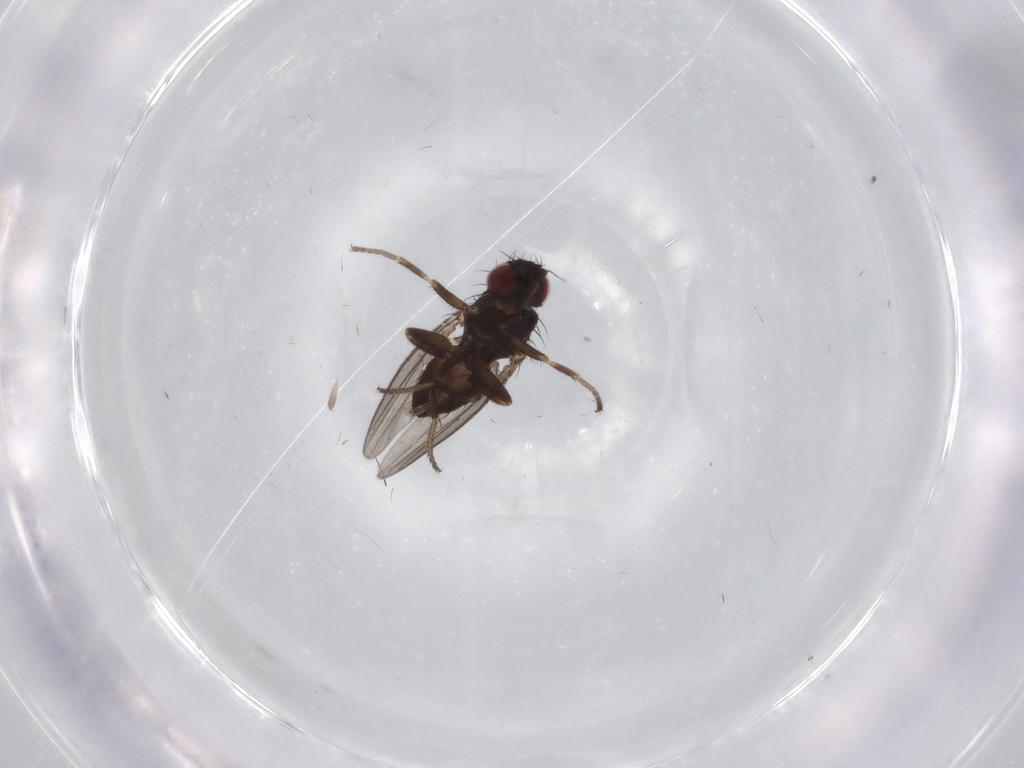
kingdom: Animalia
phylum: Arthropoda
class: Insecta
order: Diptera
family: Milichiidae
